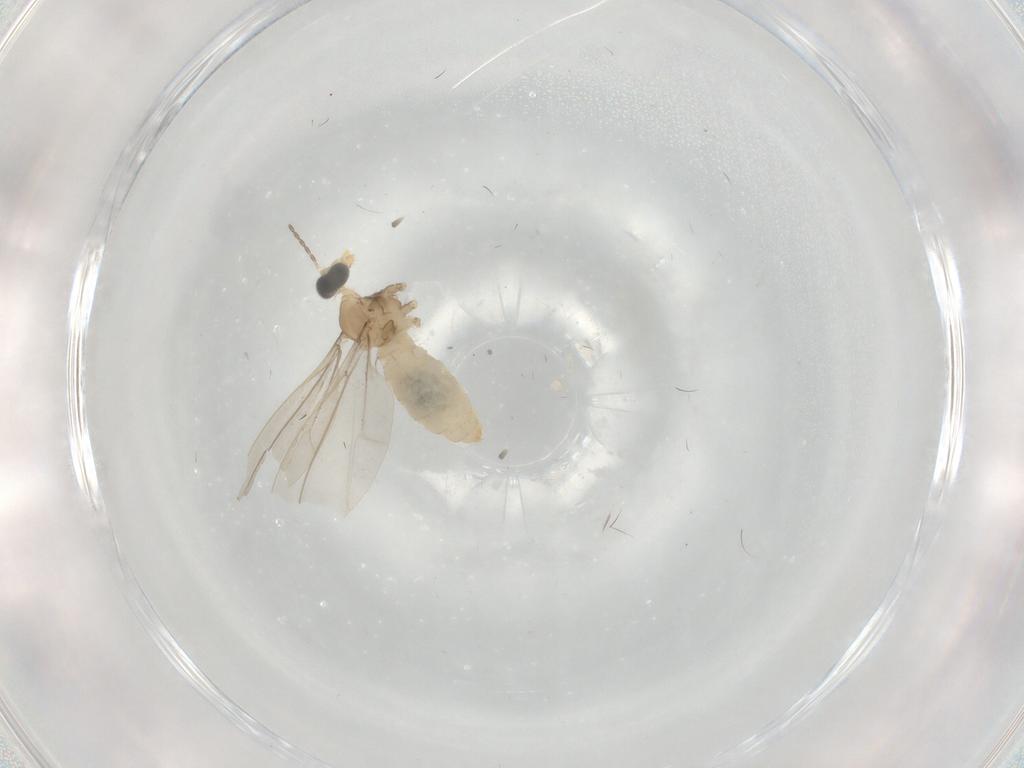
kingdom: Animalia
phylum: Arthropoda
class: Insecta
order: Diptera
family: Cecidomyiidae
